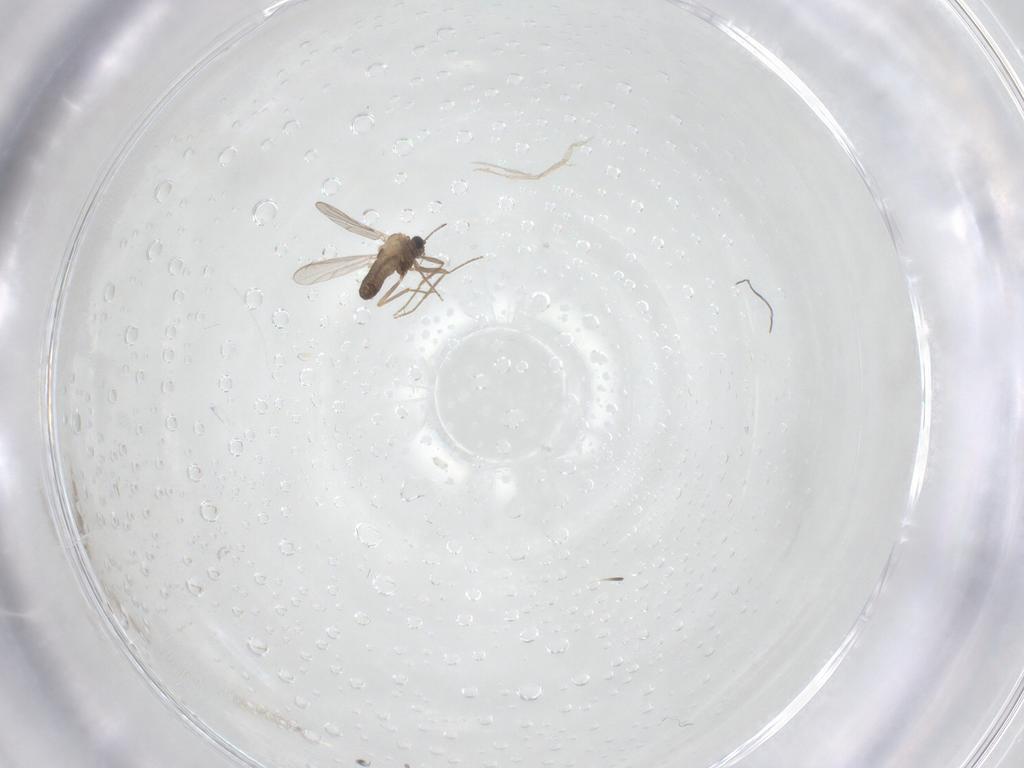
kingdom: Animalia
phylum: Arthropoda
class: Insecta
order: Diptera
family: Chironomidae
